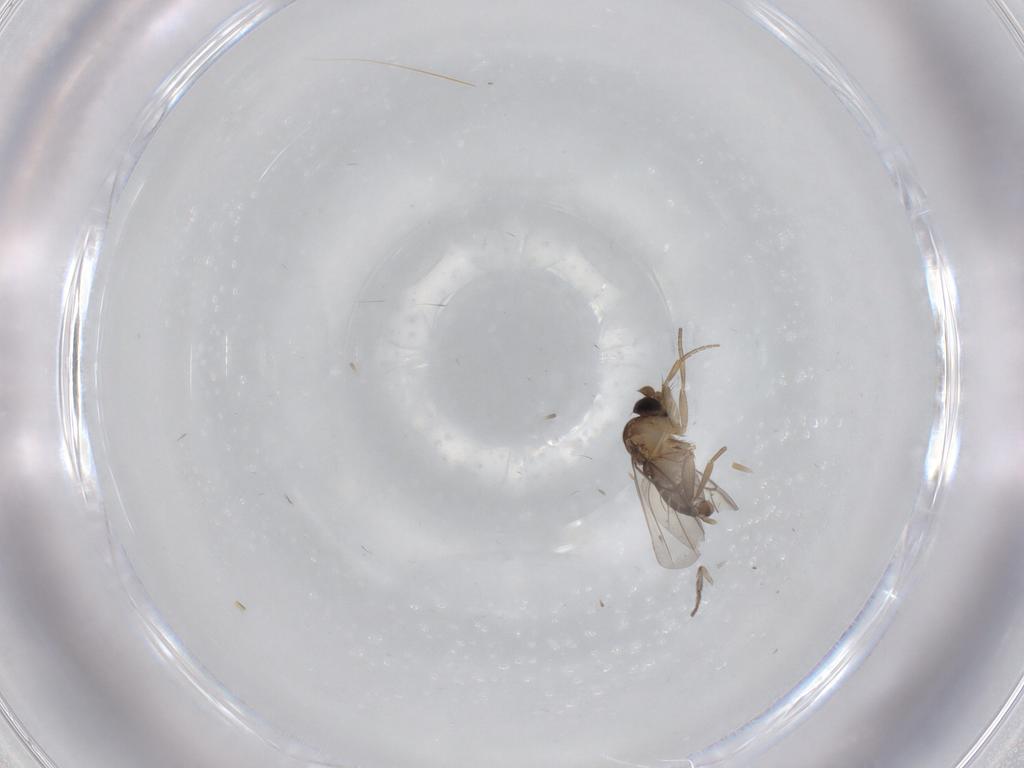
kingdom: Animalia
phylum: Arthropoda
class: Insecta
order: Diptera
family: Phoridae
